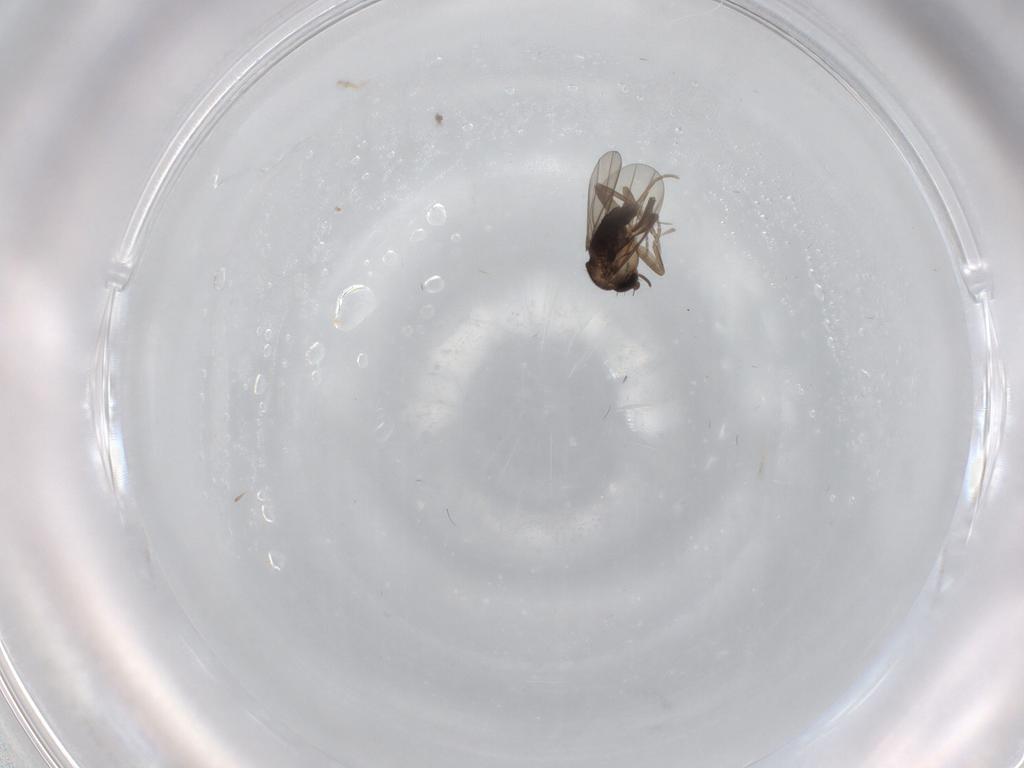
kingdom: Animalia
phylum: Arthropoda
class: Insecta
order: Diptera
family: Phoridae
